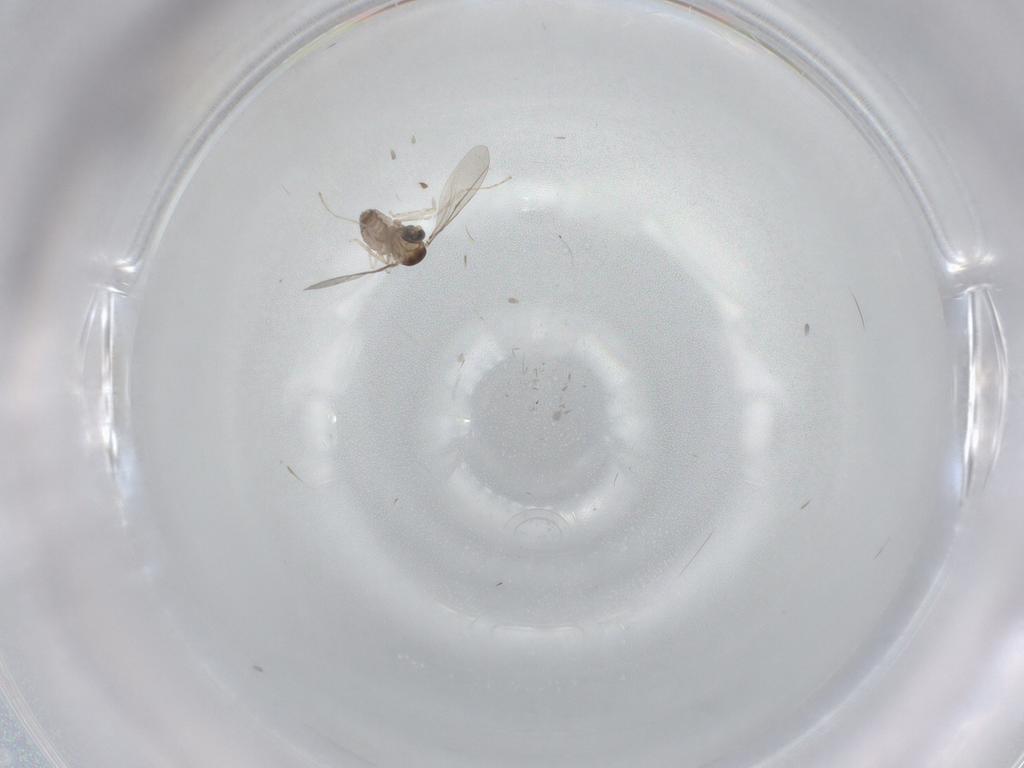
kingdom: Animalia
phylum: Arthropoda
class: Insecta
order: Diptera
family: Cecidomyiidae
